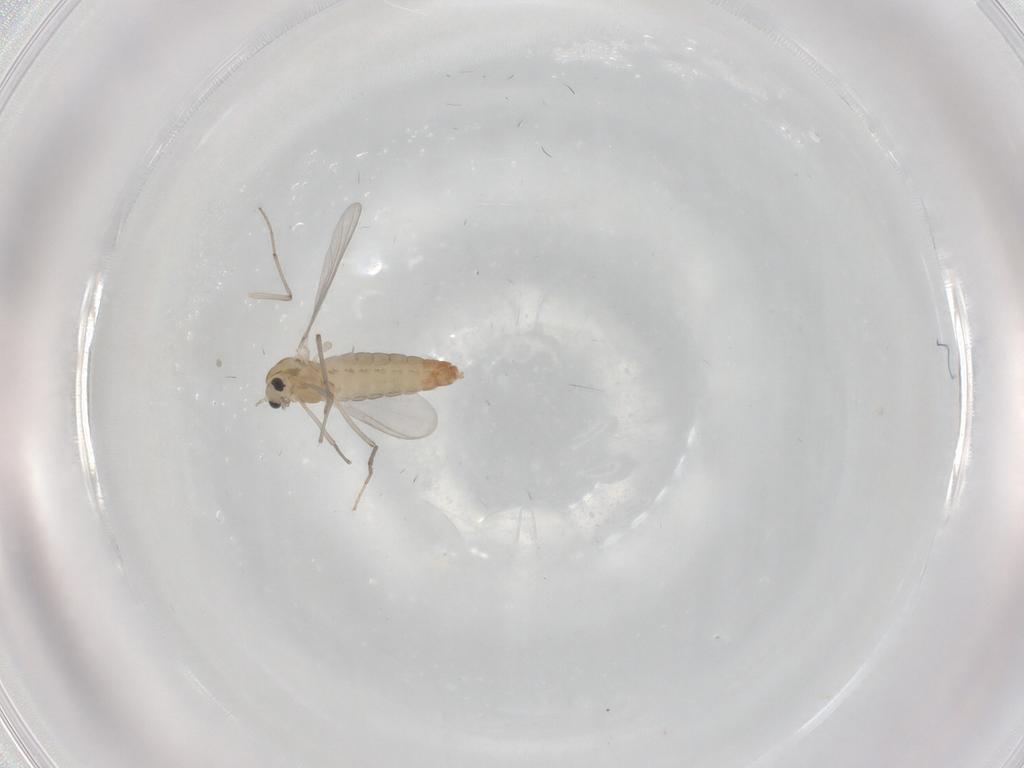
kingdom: Animalia
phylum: Arthropoda
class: Insecta
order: Diptera
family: Chironomidae
